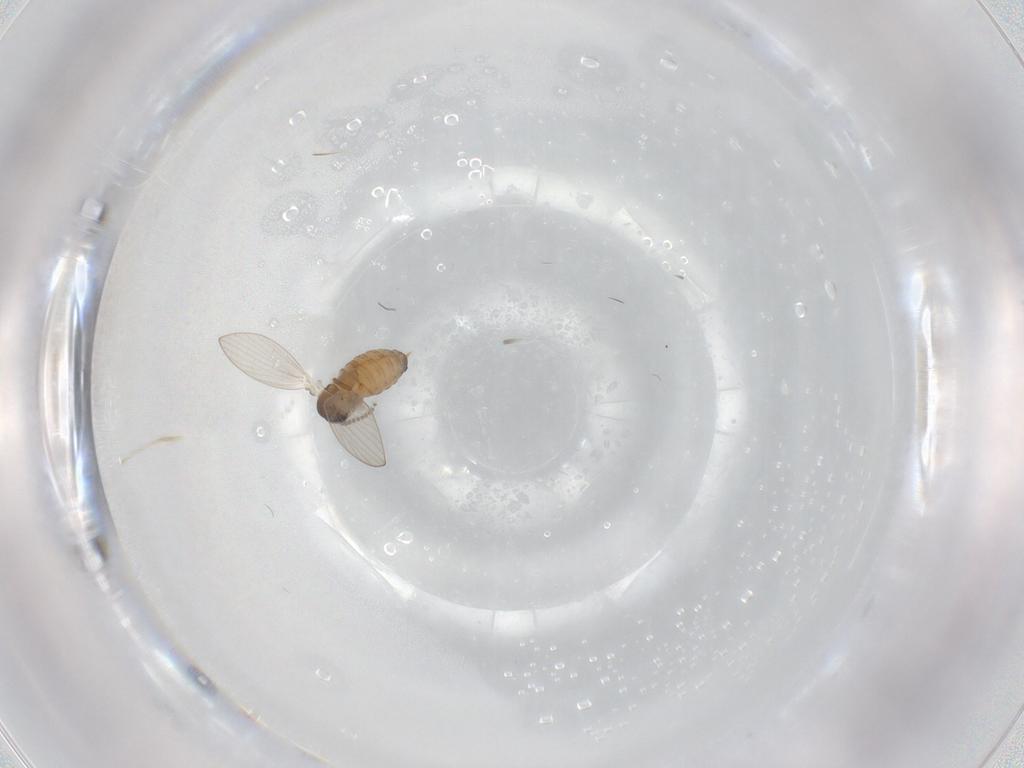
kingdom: Animalia
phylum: Arthropoda
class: Insecta
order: Diptera
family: Psychodidae
